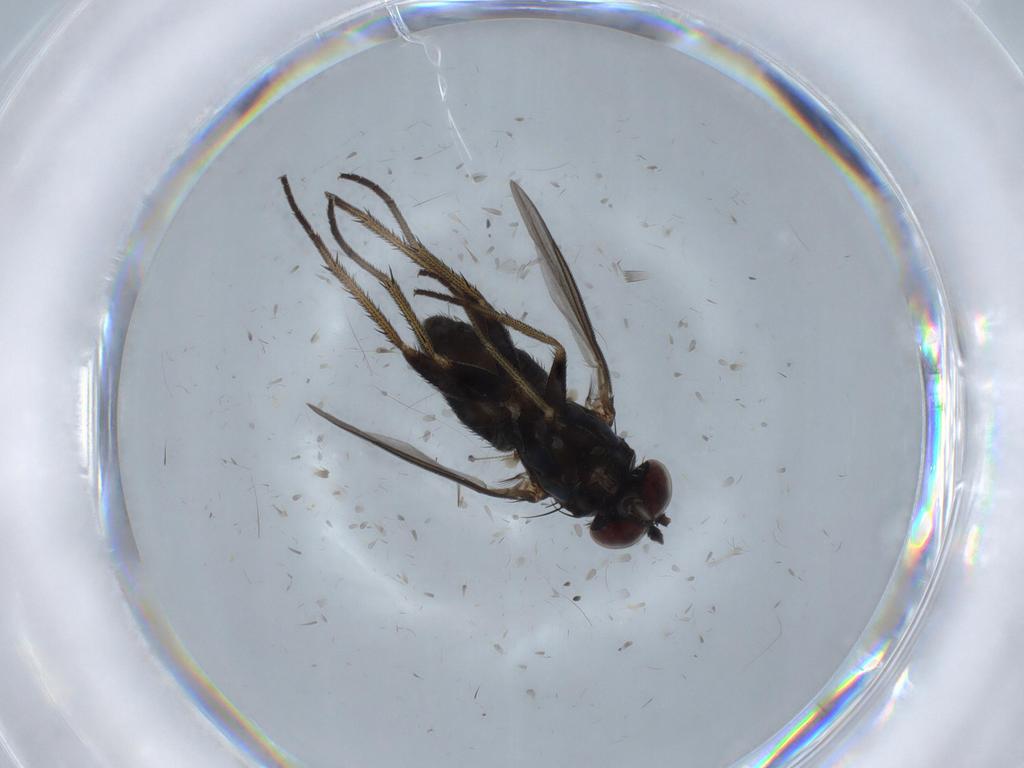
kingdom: Animalia
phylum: Arthropoda
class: Insecta
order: Diptera
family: Dolichopodidae
